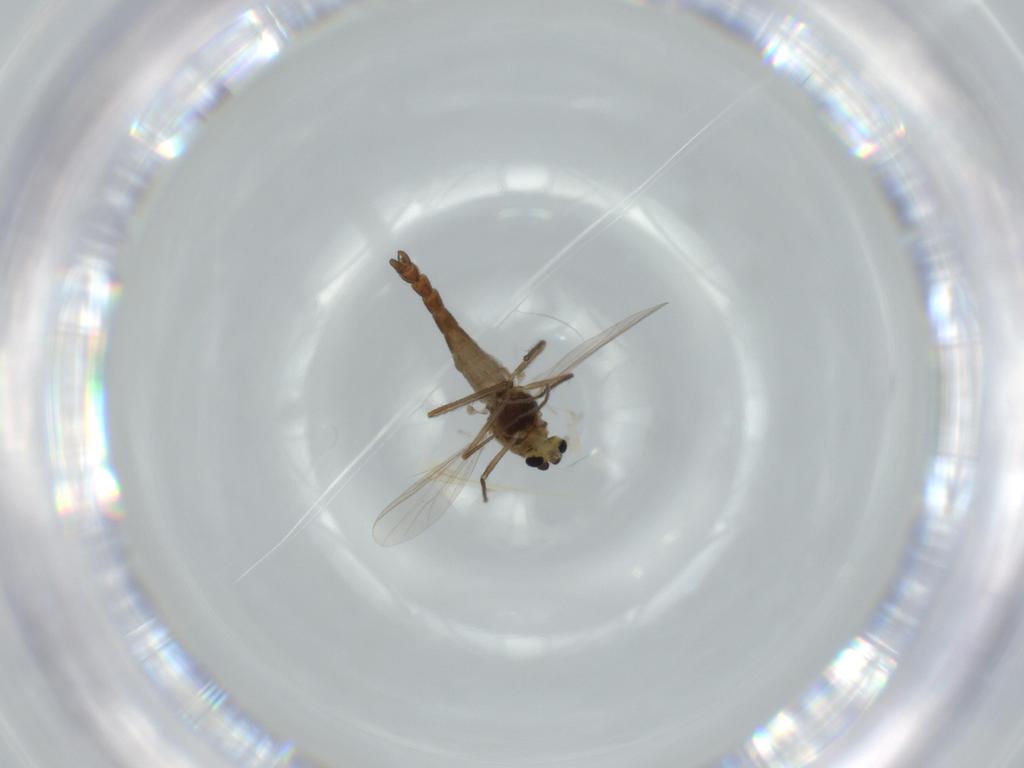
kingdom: Animalia
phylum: Arthropoda
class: Insecta
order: Diptera
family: Chironomidae
